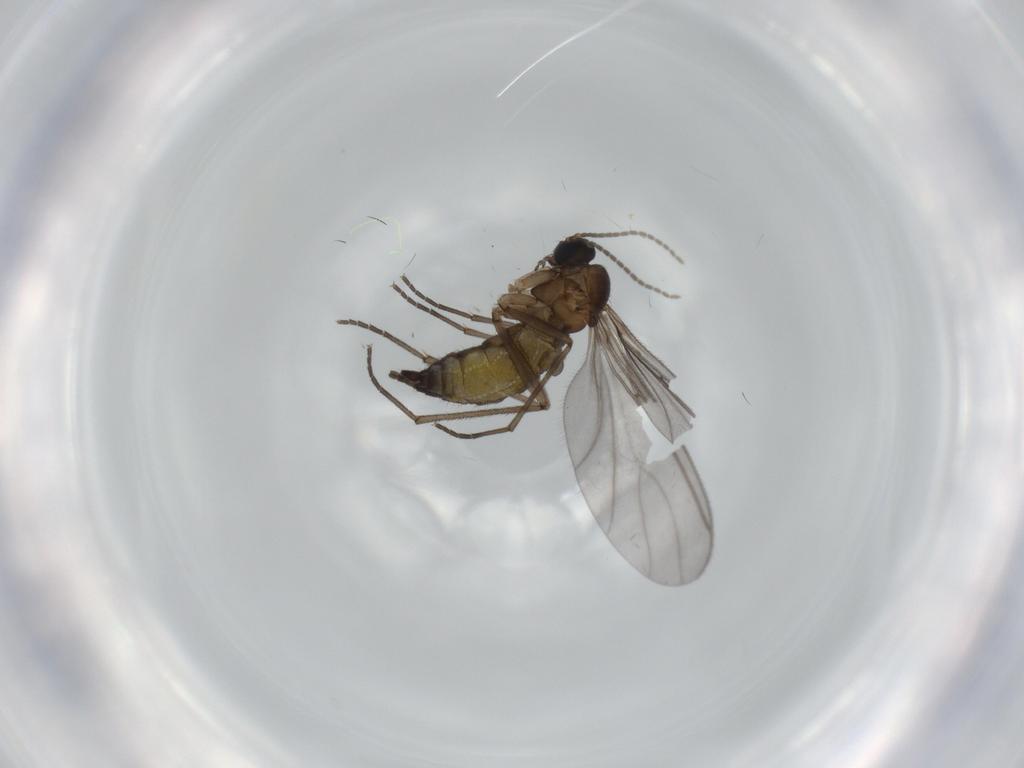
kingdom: Animalia
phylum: Arthropoda
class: Insecta
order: Diptera
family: Sciaridae
